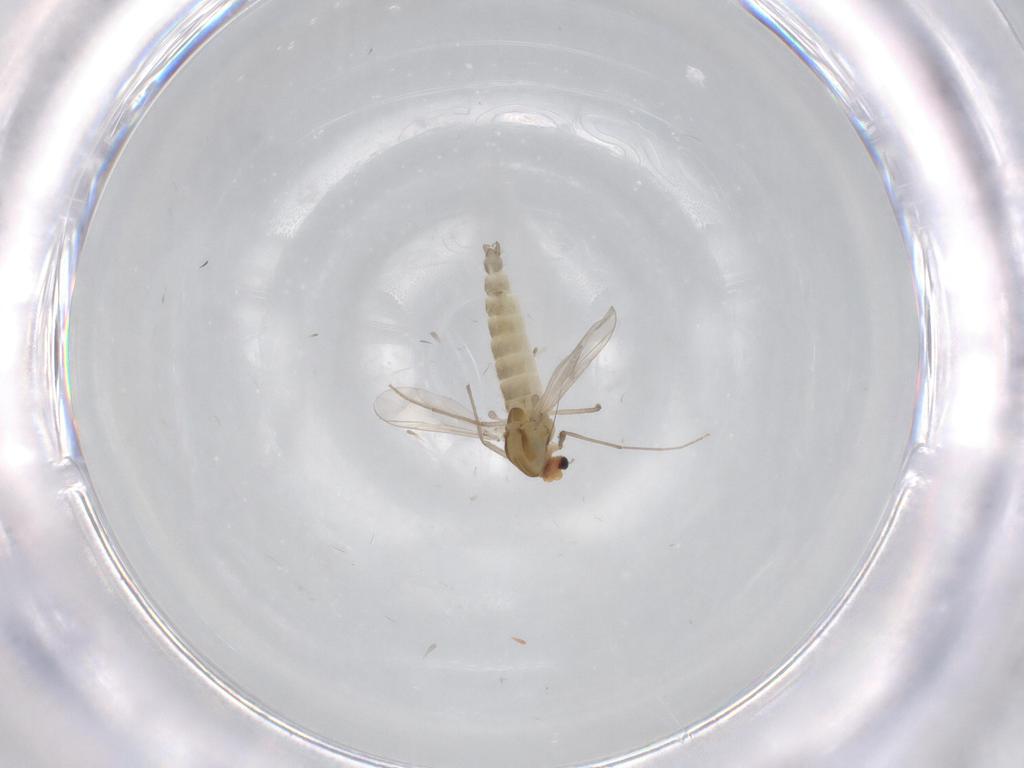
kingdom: Animalia
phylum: Arthropoda
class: Insecta
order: Diptera
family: Chironomidae
